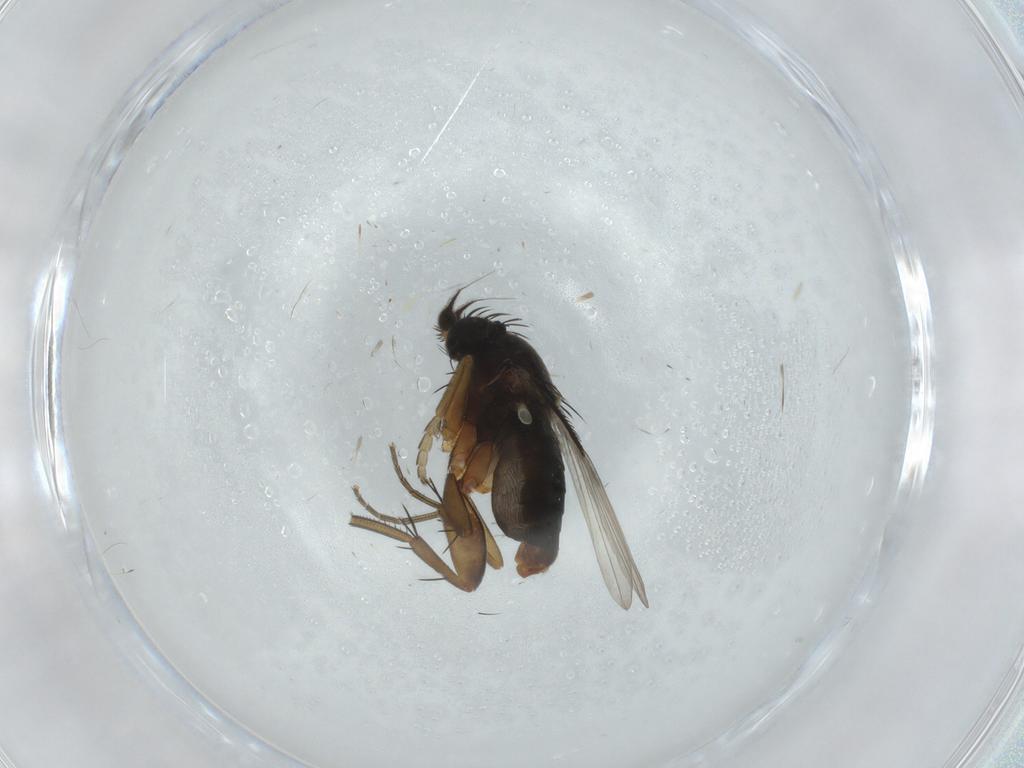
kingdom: Animalia
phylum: Arthropoda
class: Insecta
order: Diptera
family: Phoridae
